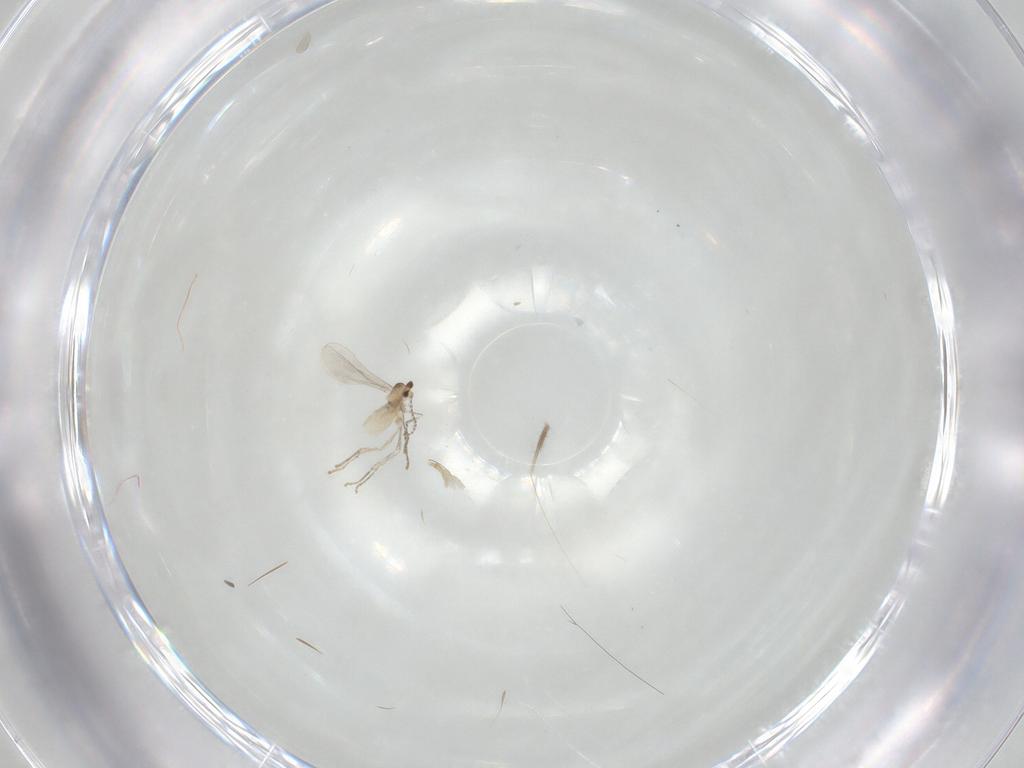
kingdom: Animalia
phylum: Arthropoda
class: Insecta
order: Diptera
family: Cecidomyiidae
